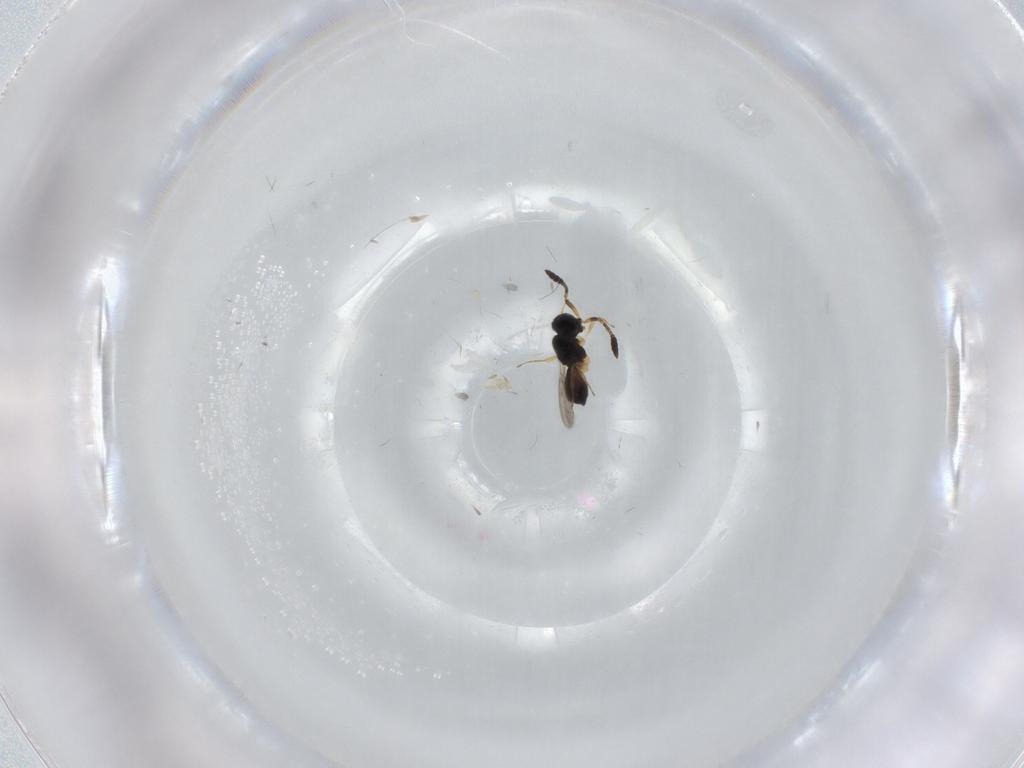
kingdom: Animalia
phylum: Arthropoda
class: Insecta
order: Hymenoptera
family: Scelionidae
